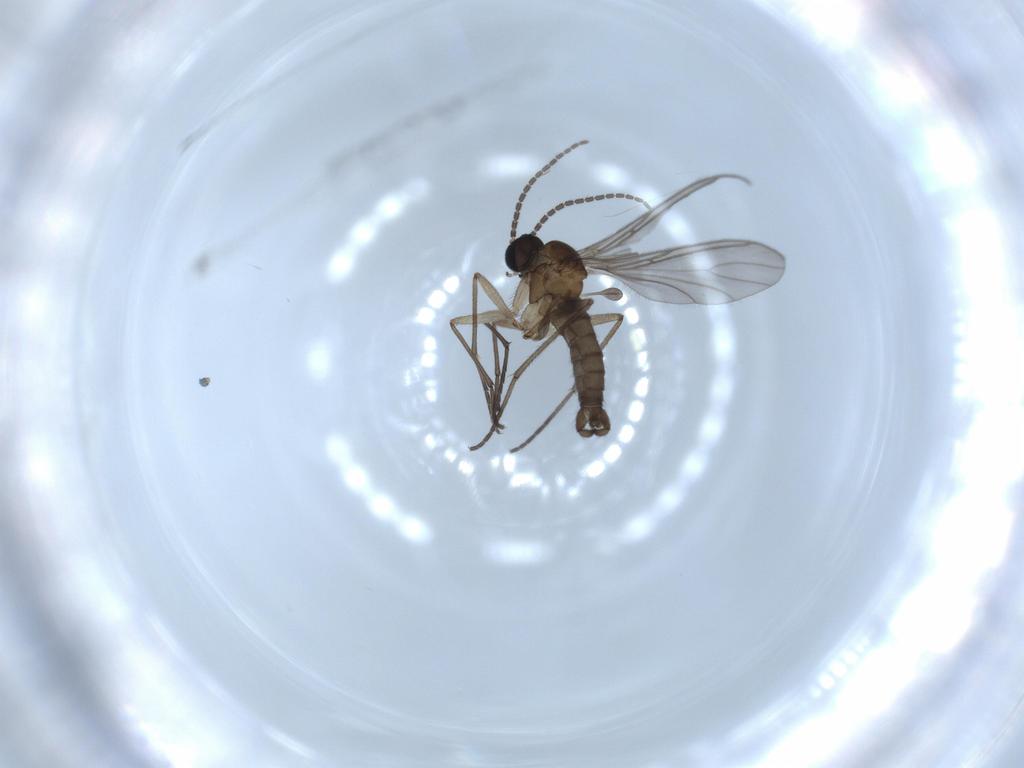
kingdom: Animalia
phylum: Arthropoda
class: Insecta
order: Diptera
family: Sciaridae
